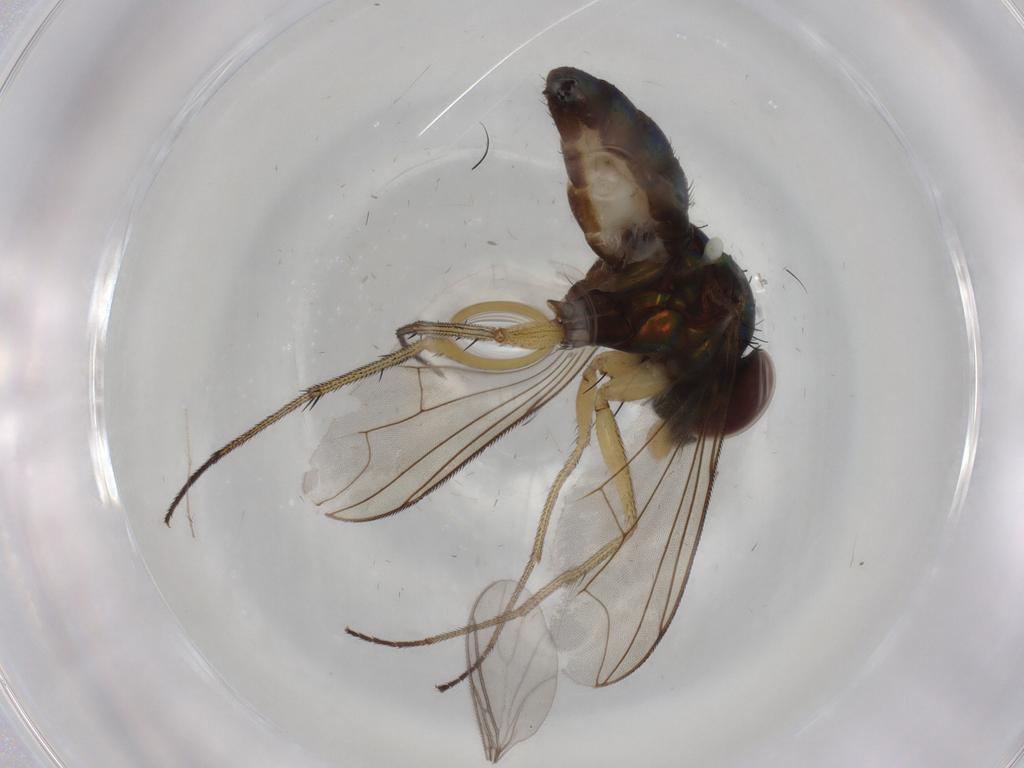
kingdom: Animalia
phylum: Arthropoda
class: Insecta
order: Diptera
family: Dolichopodidae
